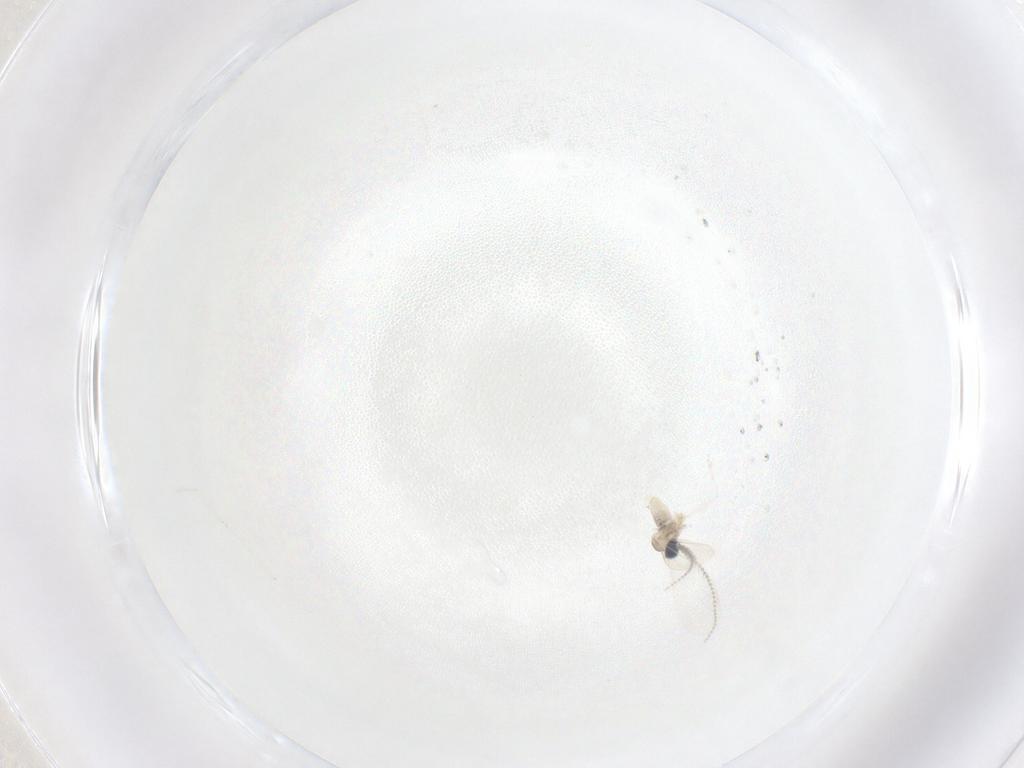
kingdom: Animalia
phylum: Arthropoda
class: Insecta
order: Diptera
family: Cecidomyiidae
